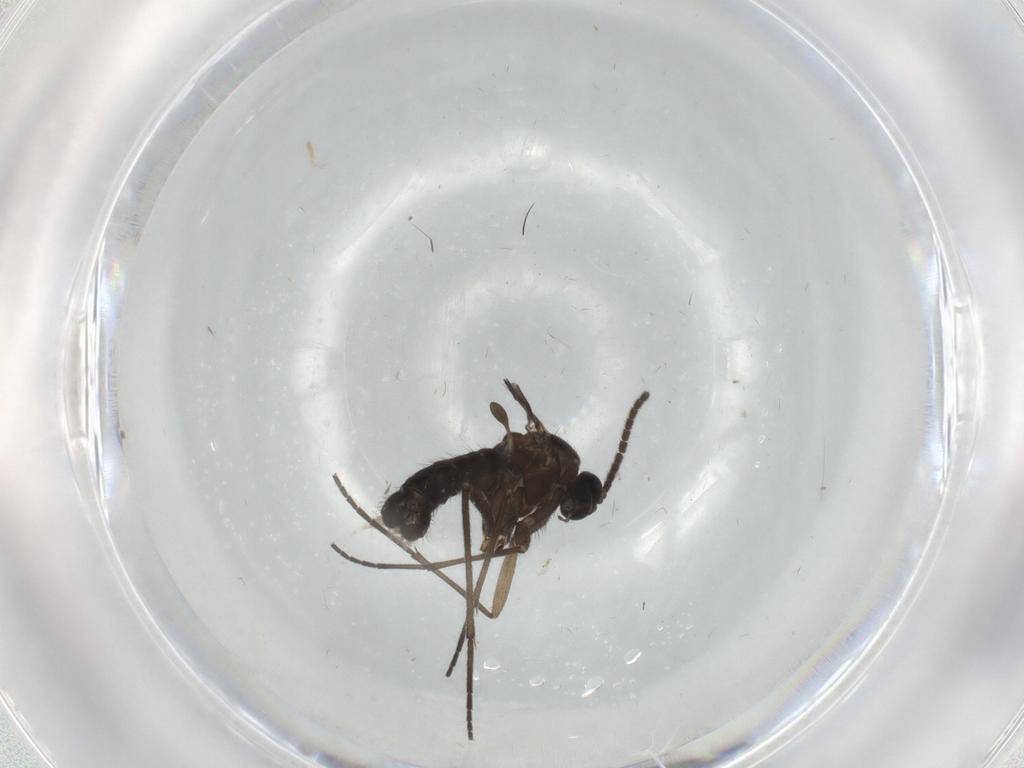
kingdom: Animalia
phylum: Arthropoda
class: Insecta
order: Diptera
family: Sciaridae
